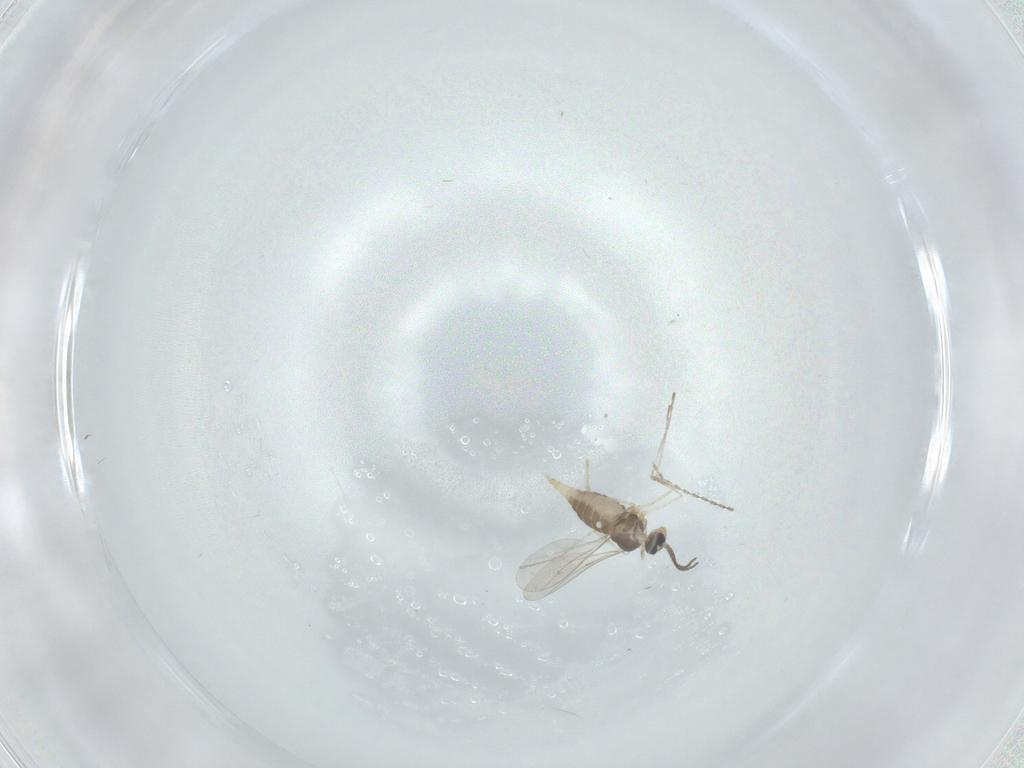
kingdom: Animalia
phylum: Arthropoda
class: Insecta
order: Diptera
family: Cecidomyiidae
